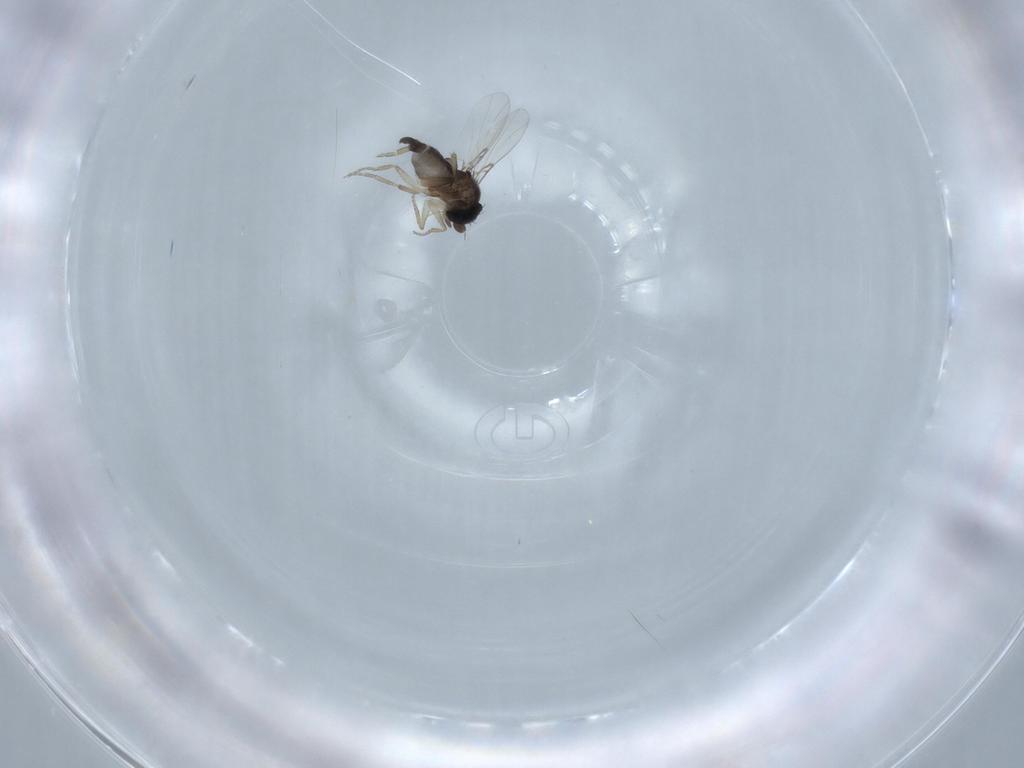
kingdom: Animalia
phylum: Arthropoda
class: Insecta
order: Diptera
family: Phoridae
